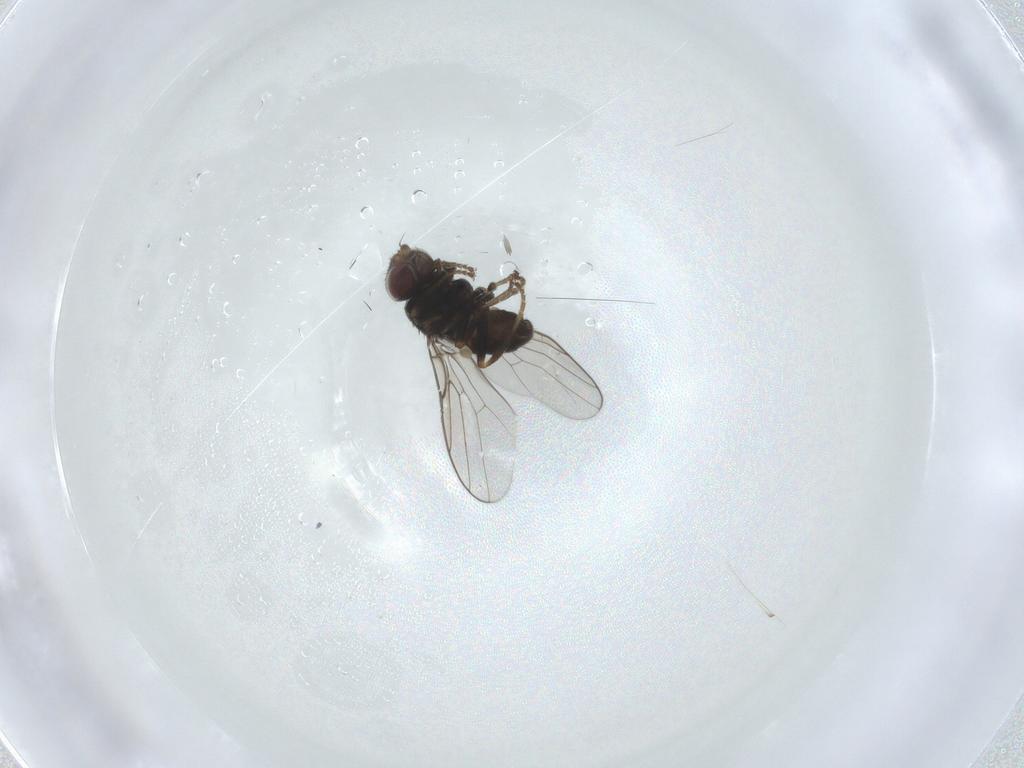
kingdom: Animalia
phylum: Arthropoda
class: Insecta
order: Diptera
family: Chloropidae
